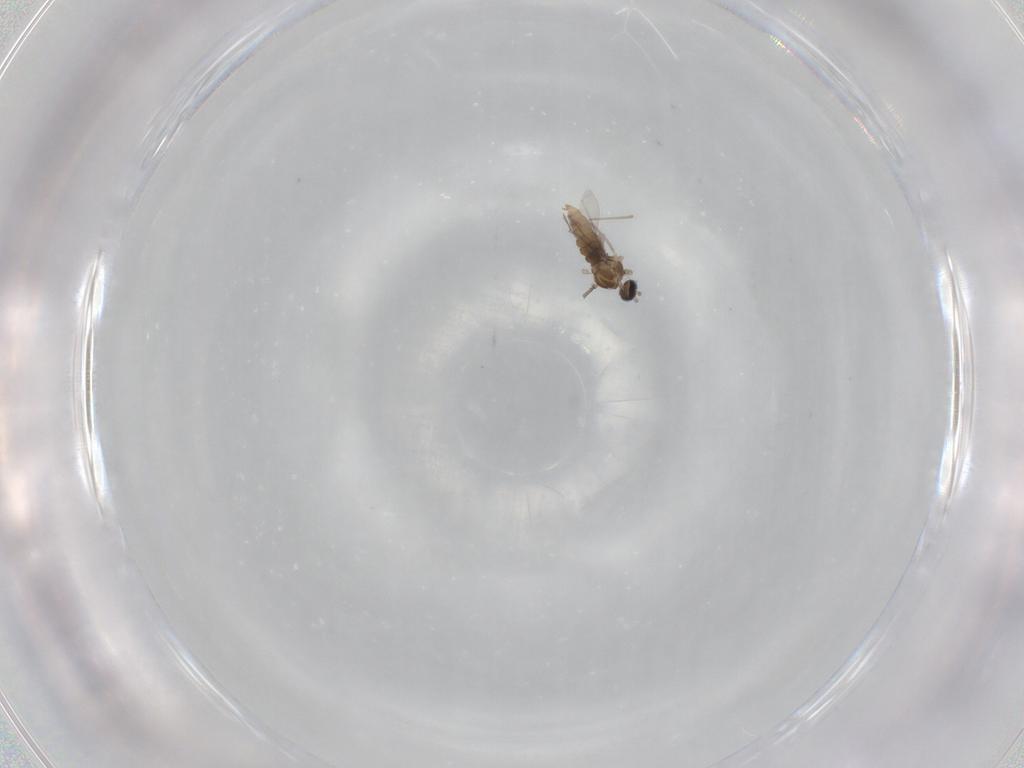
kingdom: Animalia
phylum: Arthropoda
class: Insecta
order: Diptera
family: Cecidomyiidae
